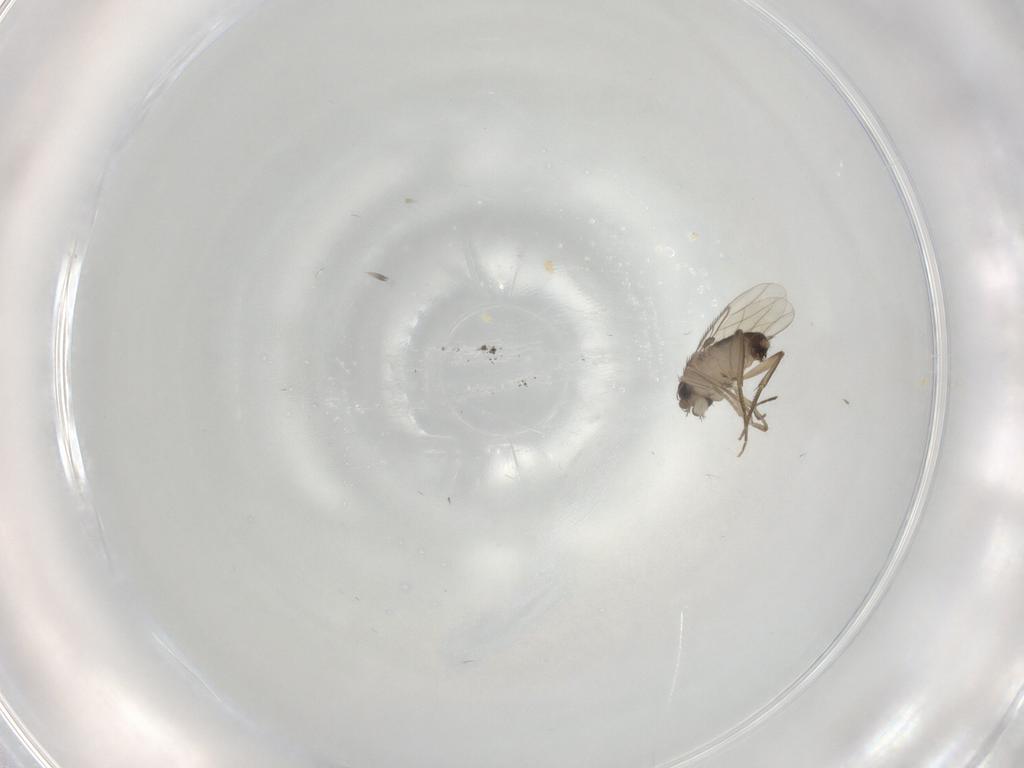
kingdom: Animalia
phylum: Arthropoda
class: Insecta
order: Diptera
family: Phoridae
